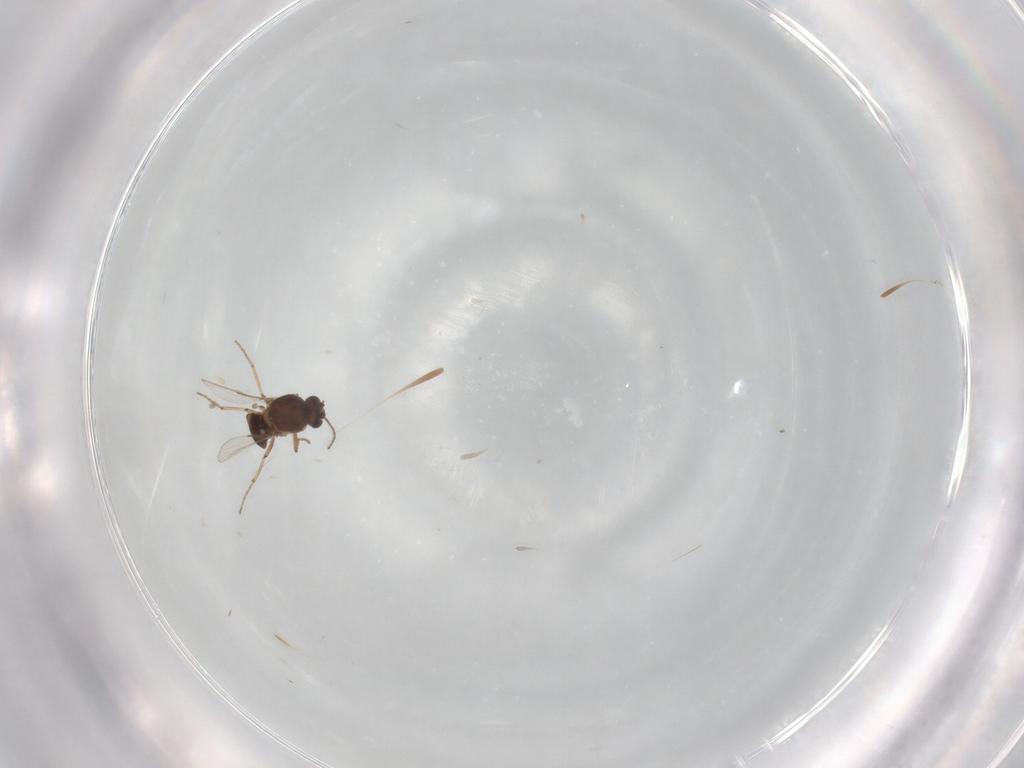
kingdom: Animalia
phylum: Arthropoda
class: Insecta
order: Diptera
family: Ceratopogonidae
